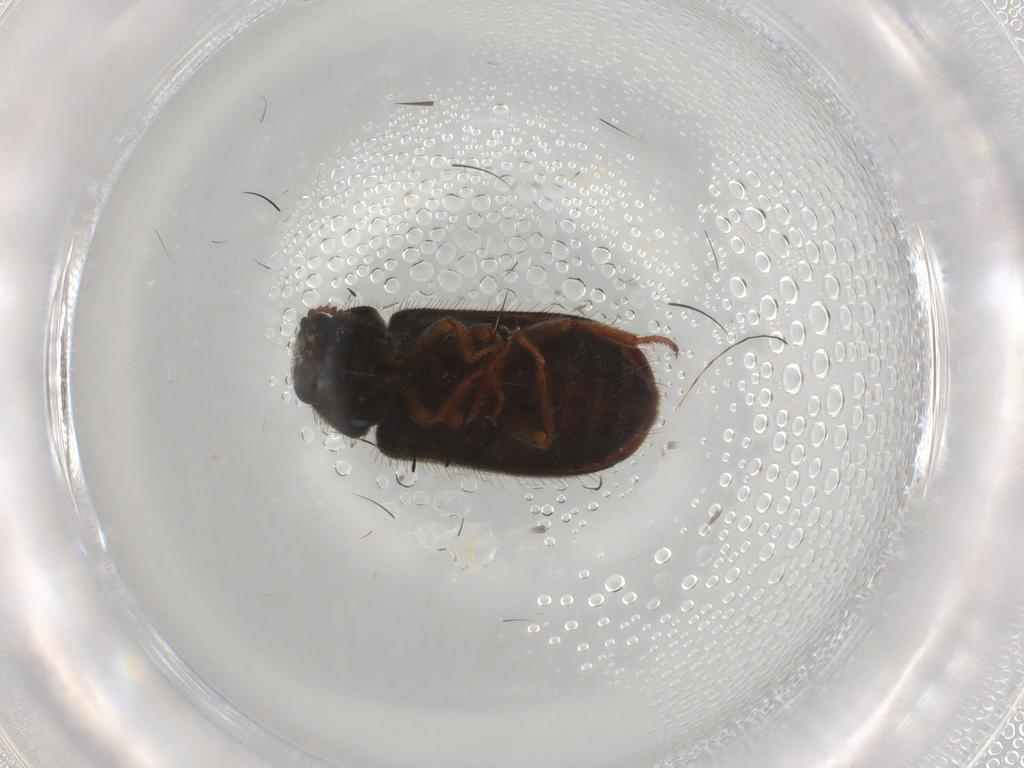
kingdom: Animalia
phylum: Arthropoda
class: Insecta
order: Coleoptera
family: Melyridae
